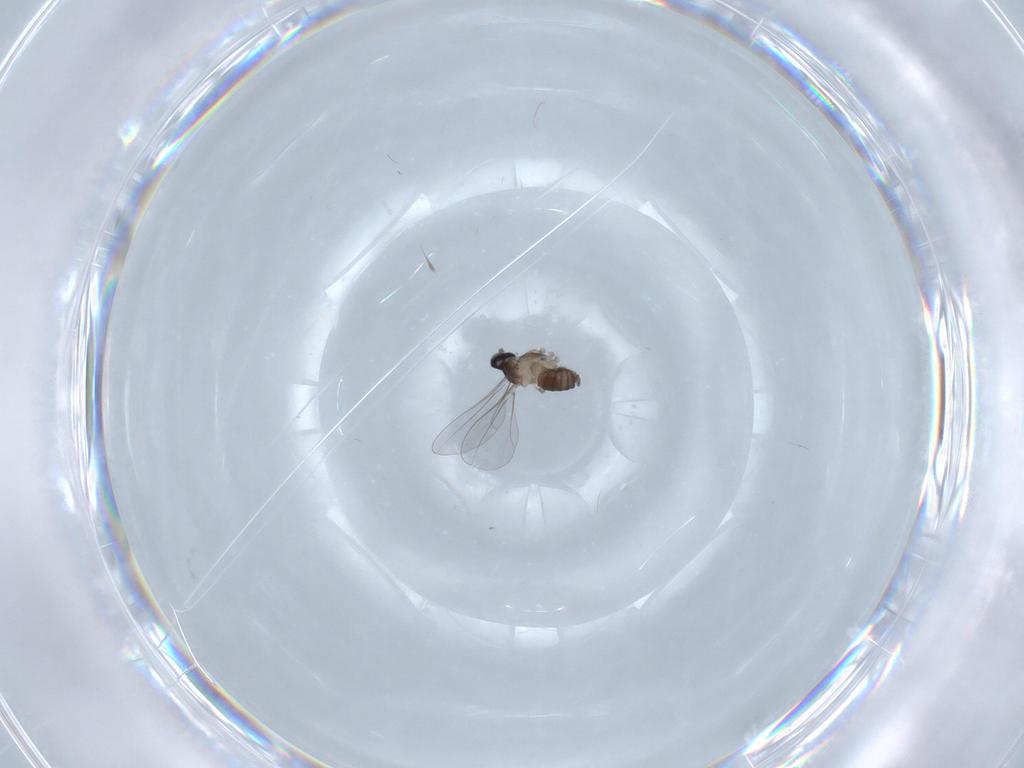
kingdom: Animalia
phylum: Arthropoda
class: Insecta
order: Diptera
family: Cecidomyiidae
